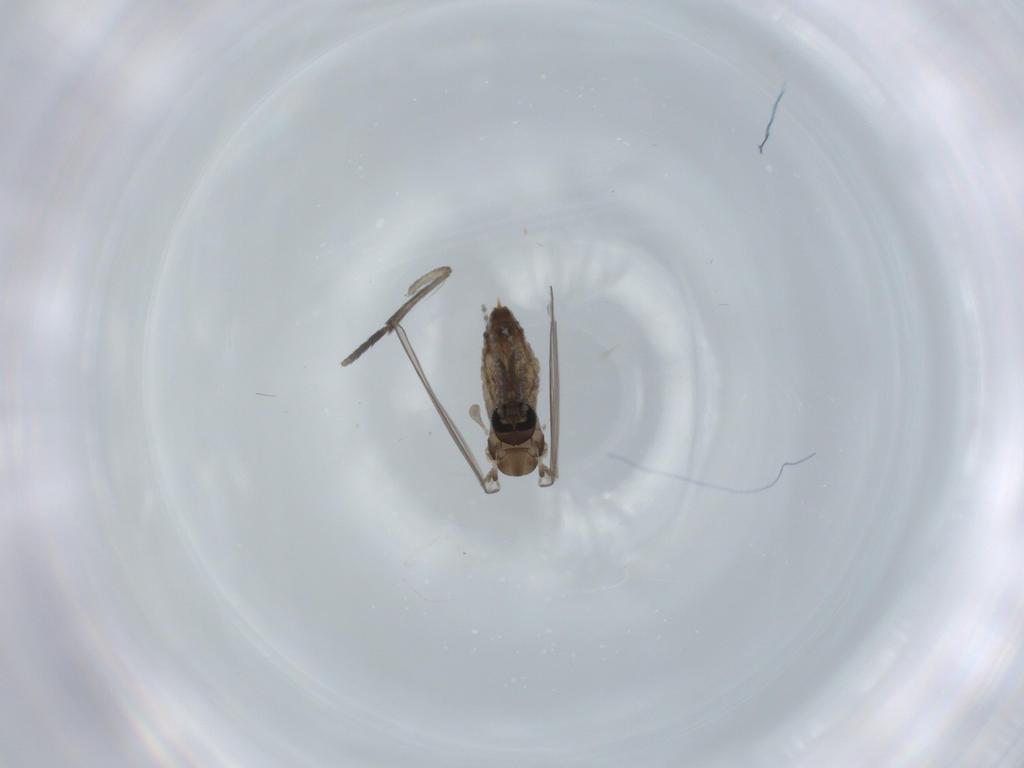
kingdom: Animalia
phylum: Arthropoda
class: Insecta
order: Diptera
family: Psychodidae
